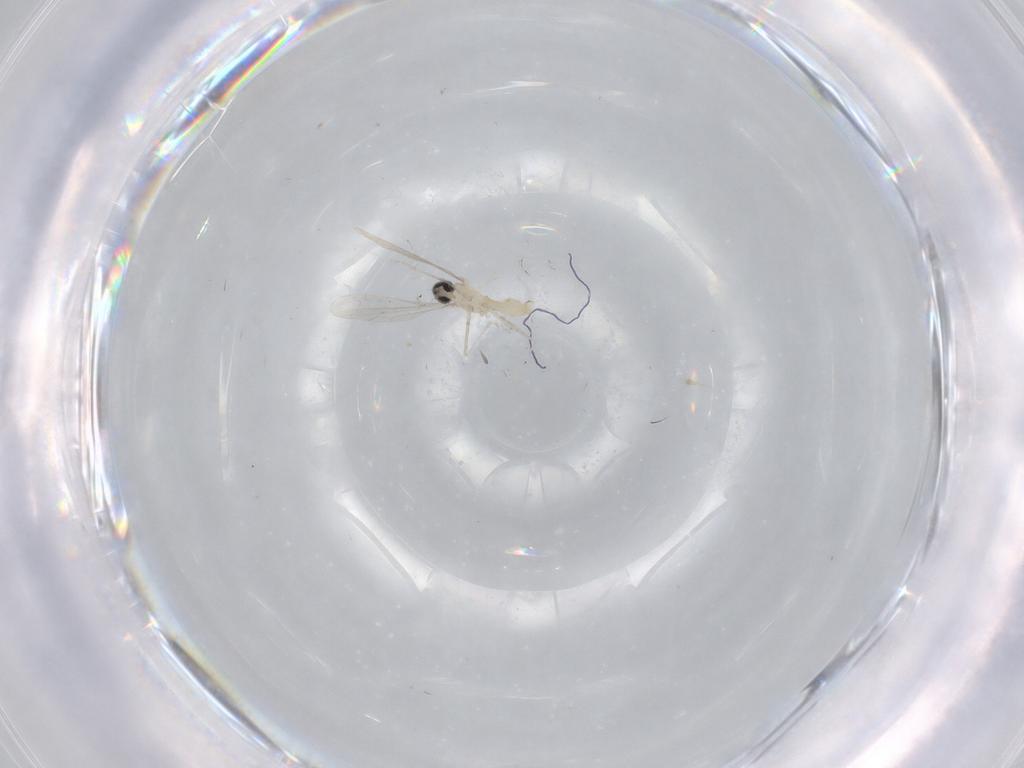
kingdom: Animalia
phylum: Arthropoda
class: Insecta
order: Diptera
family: Cecidomyiidae
